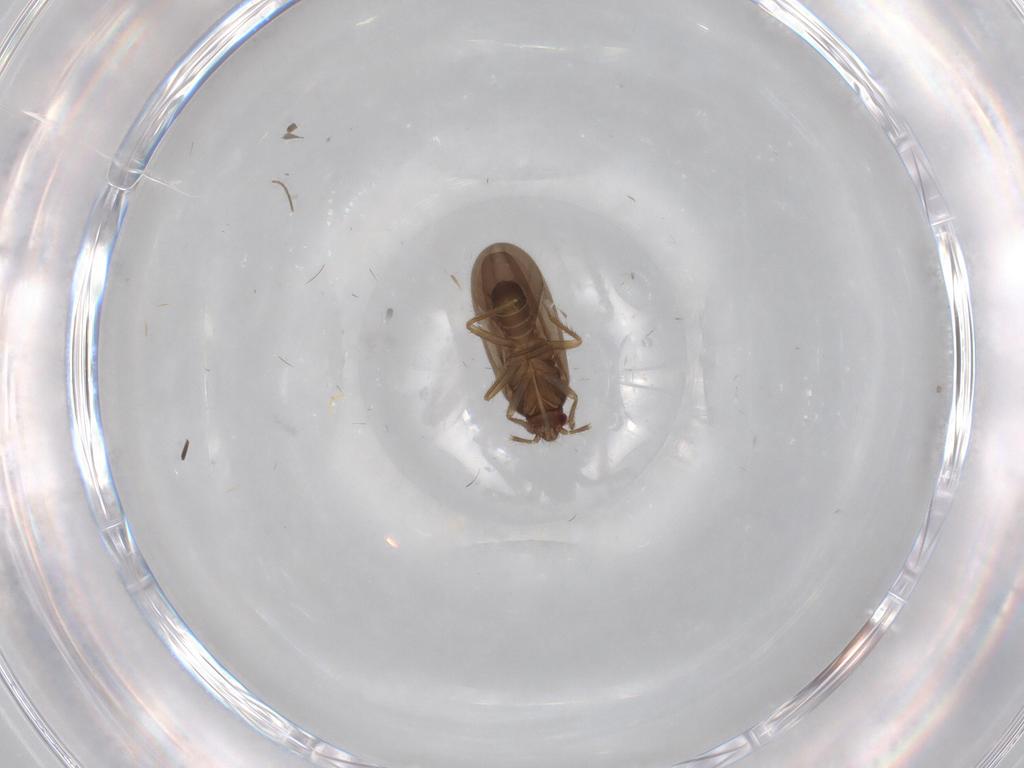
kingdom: Animalia
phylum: Arthropoda
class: Insecta
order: Hemiptera
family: Ceratocombidae
